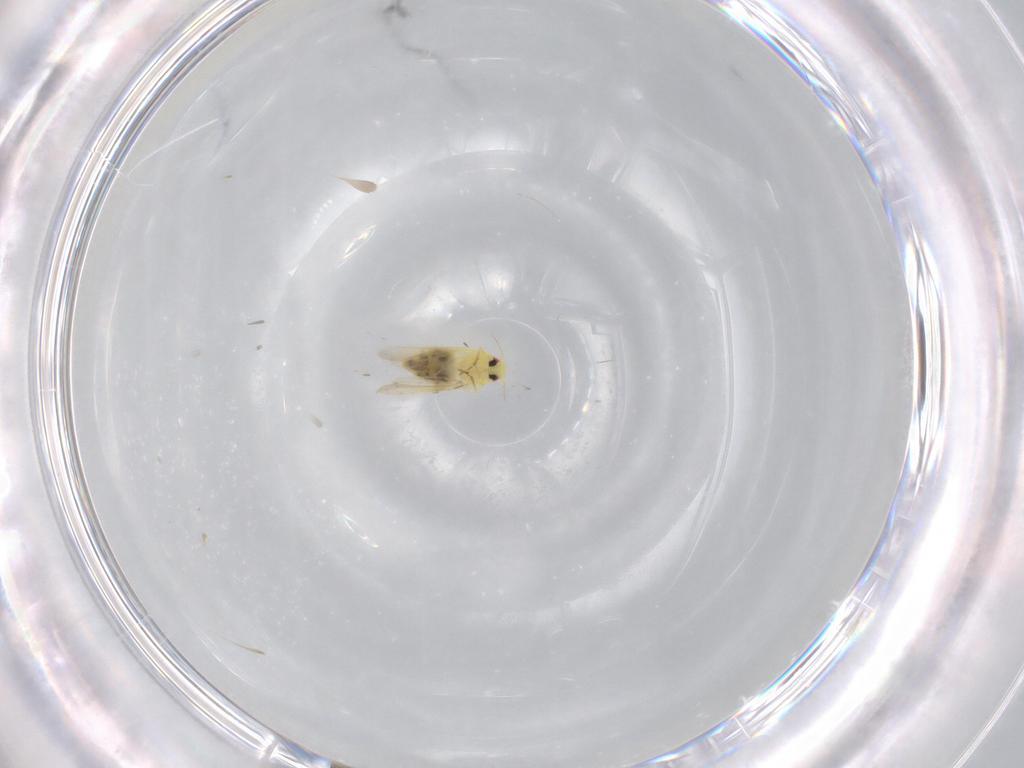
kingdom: Animalia
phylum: Arthropoda
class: Insecta
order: Hemiptera
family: Aleyrodidae
